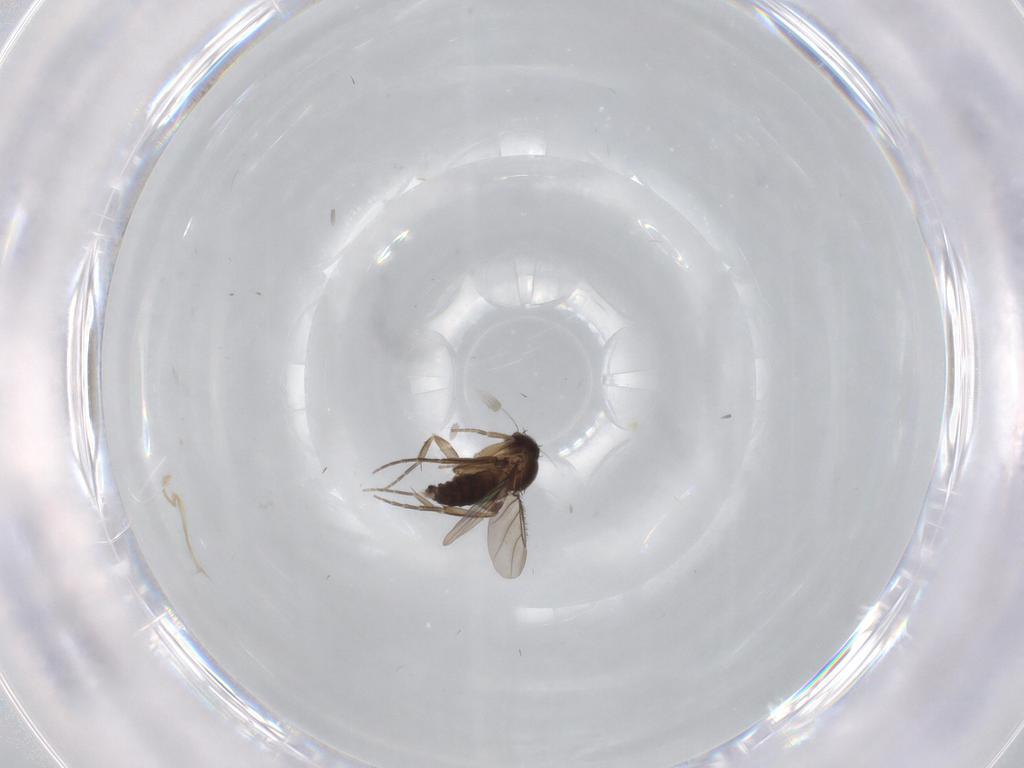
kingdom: Animalia
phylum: Arthropoda
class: Insecta
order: Diptera
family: Phoridae
